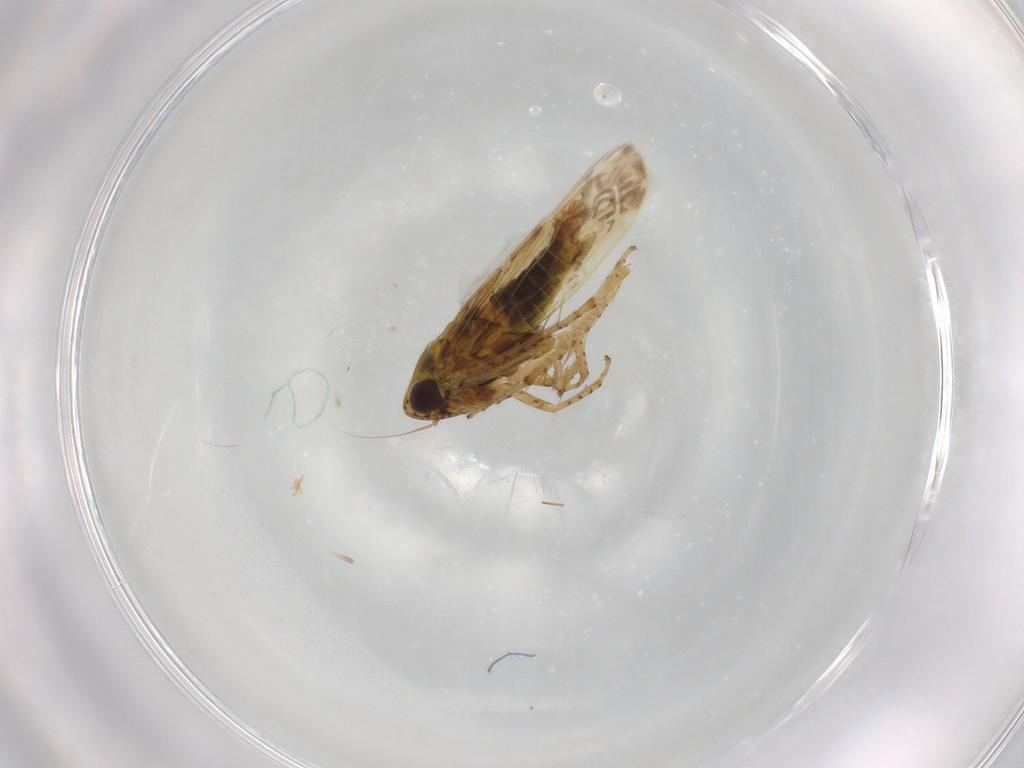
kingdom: Animalia
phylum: Arthropoda
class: Insecta
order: Hemiptera
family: Cicadellidae
